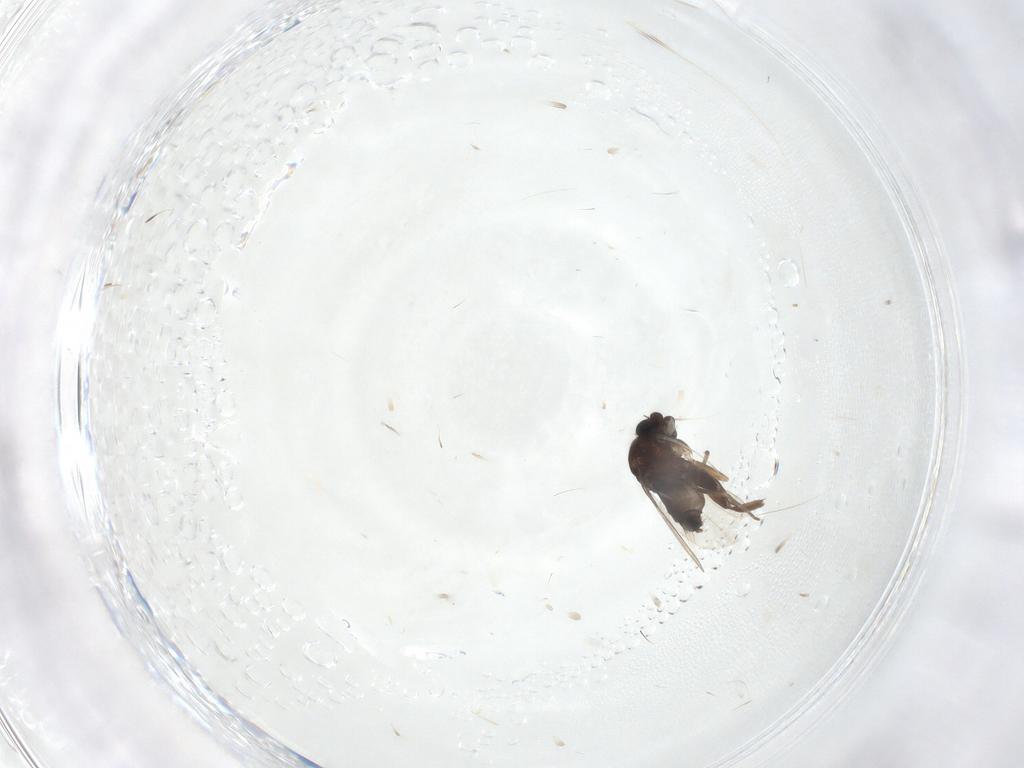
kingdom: Animalia
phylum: Arthropoda
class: Insecta
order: Diptera
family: Phoridae
